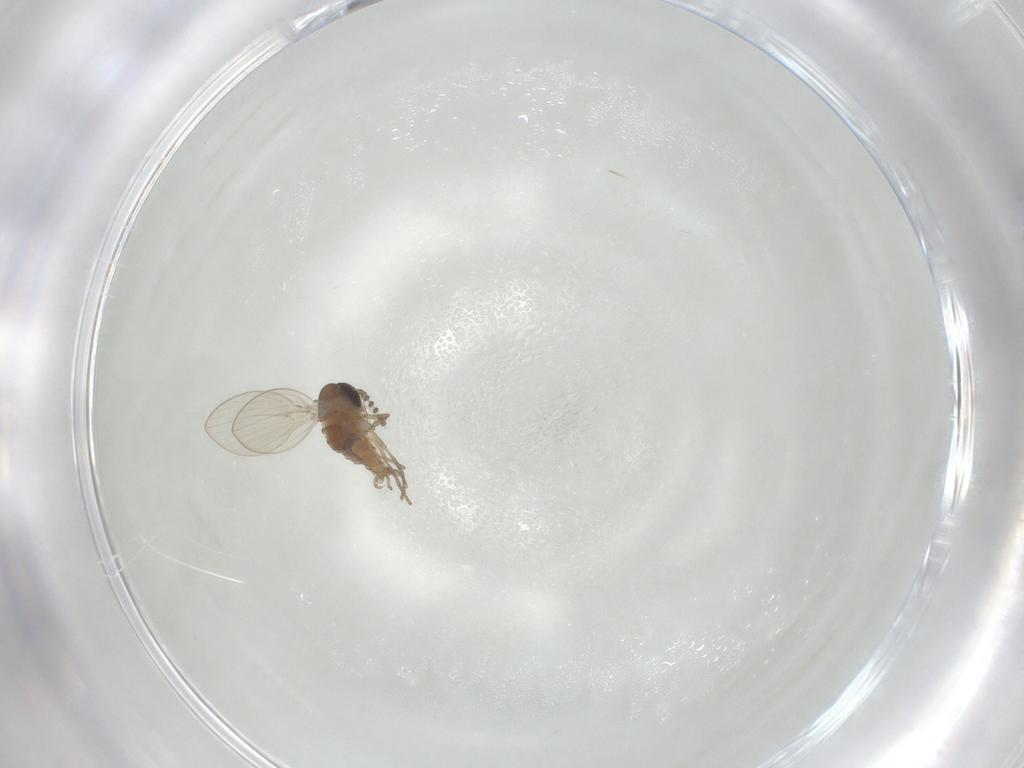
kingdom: Animalia
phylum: Arthropoda
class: Insecta
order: Diptera
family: Psychodidae
